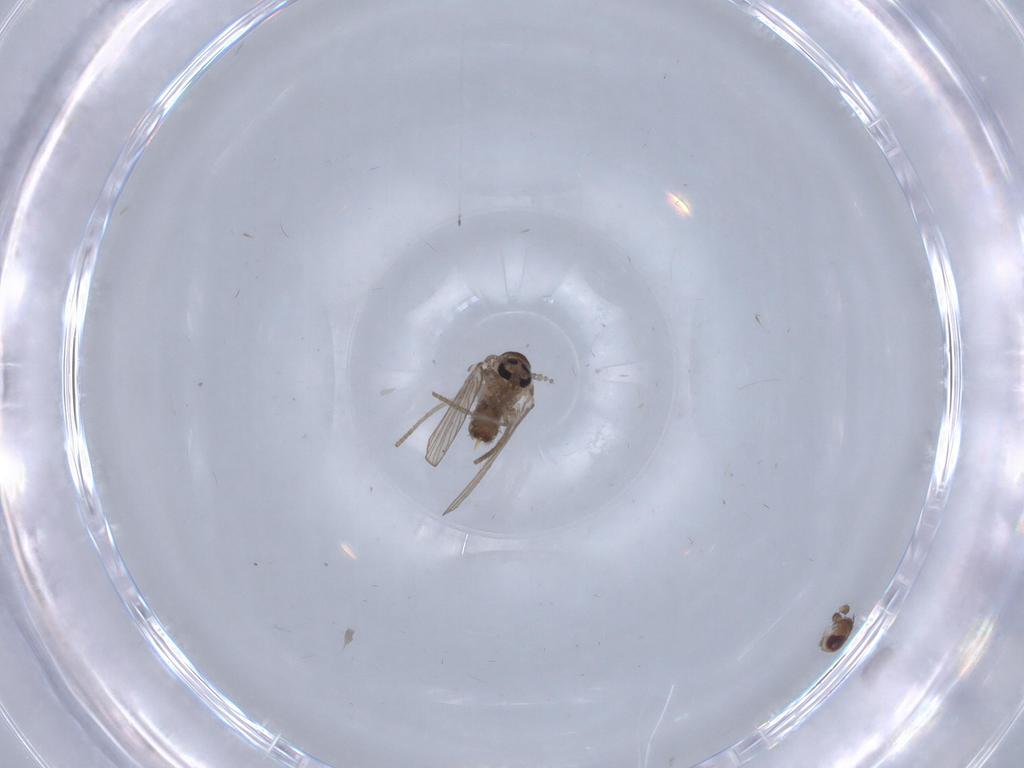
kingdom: Animalia
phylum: Arthropoda
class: Insecta
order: Diptera
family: Sphaeroceridae
